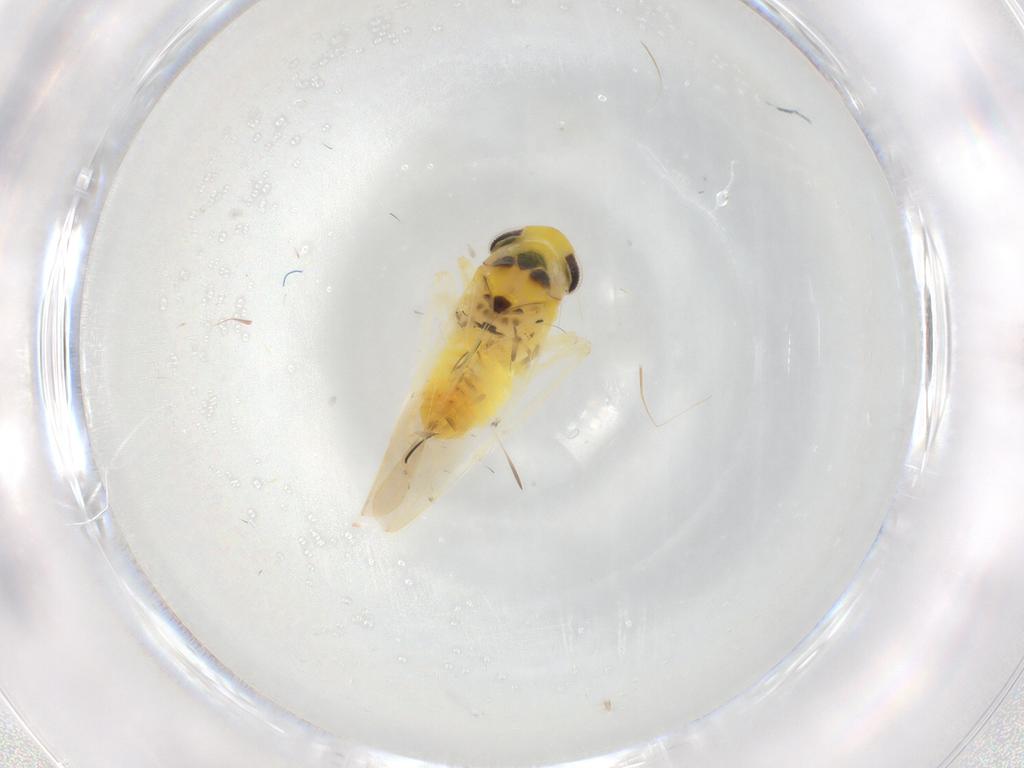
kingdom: Animalia
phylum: Arthropoda
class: Insecta
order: Hemiptera
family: Cicadellidae
